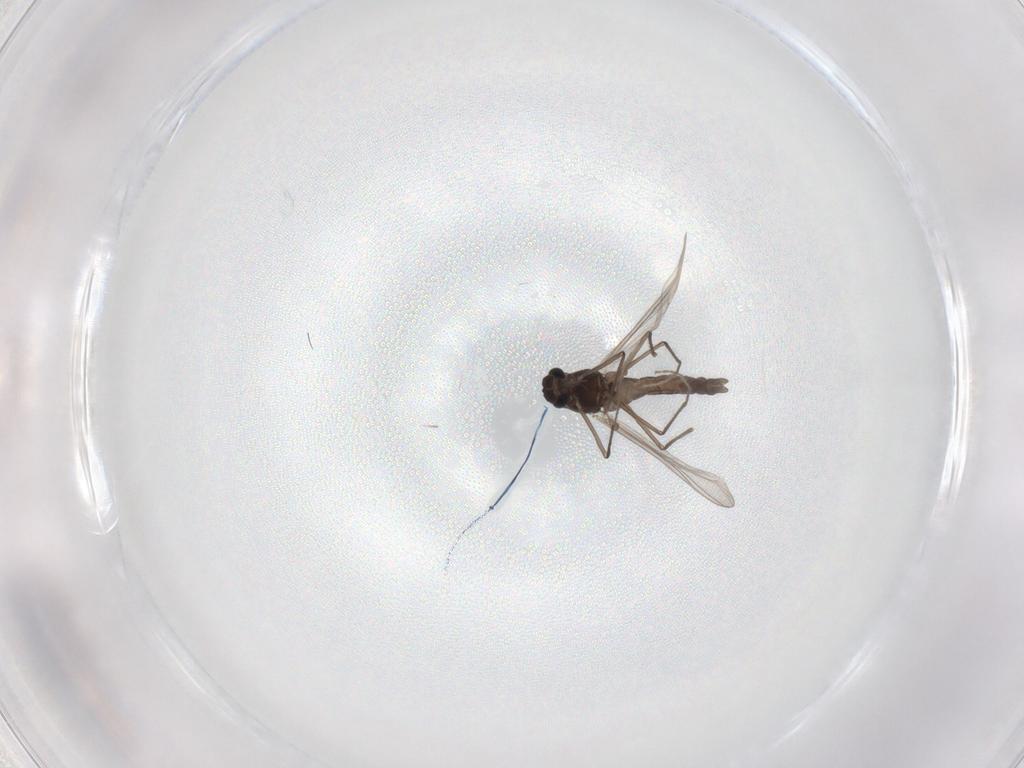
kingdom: Animalia
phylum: Arthropoda
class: Insecta
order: Diptera
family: Chironomidae
